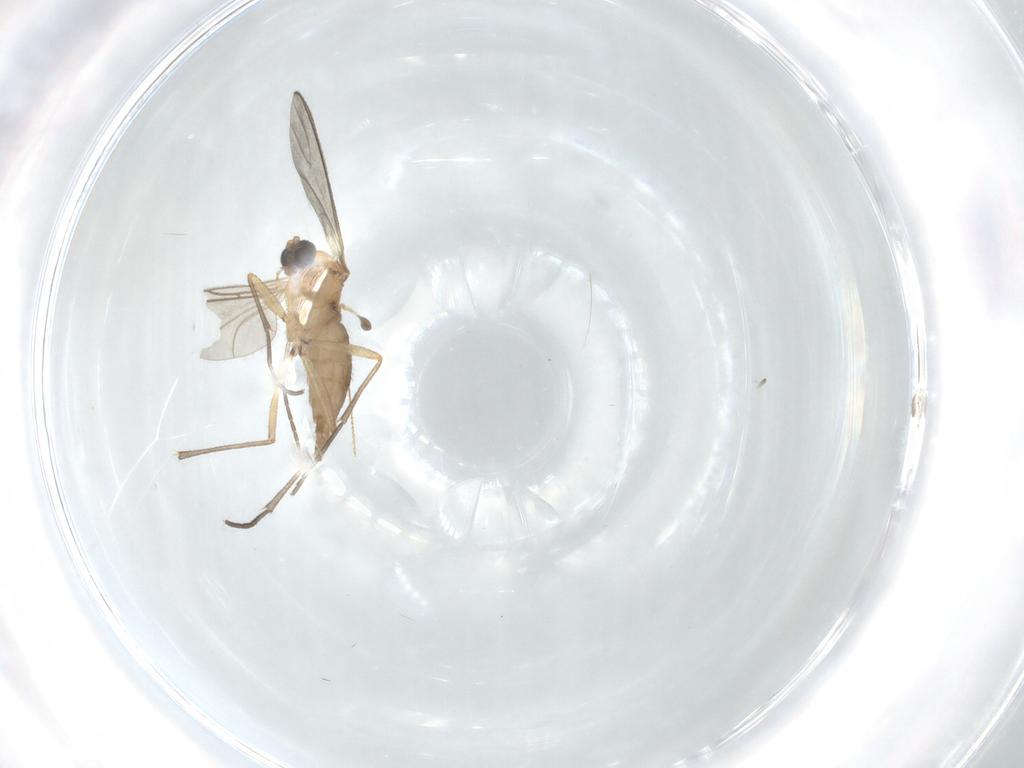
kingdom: Animalia
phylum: Arthropoda
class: Insecta
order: Diptera
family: Sciaridae
